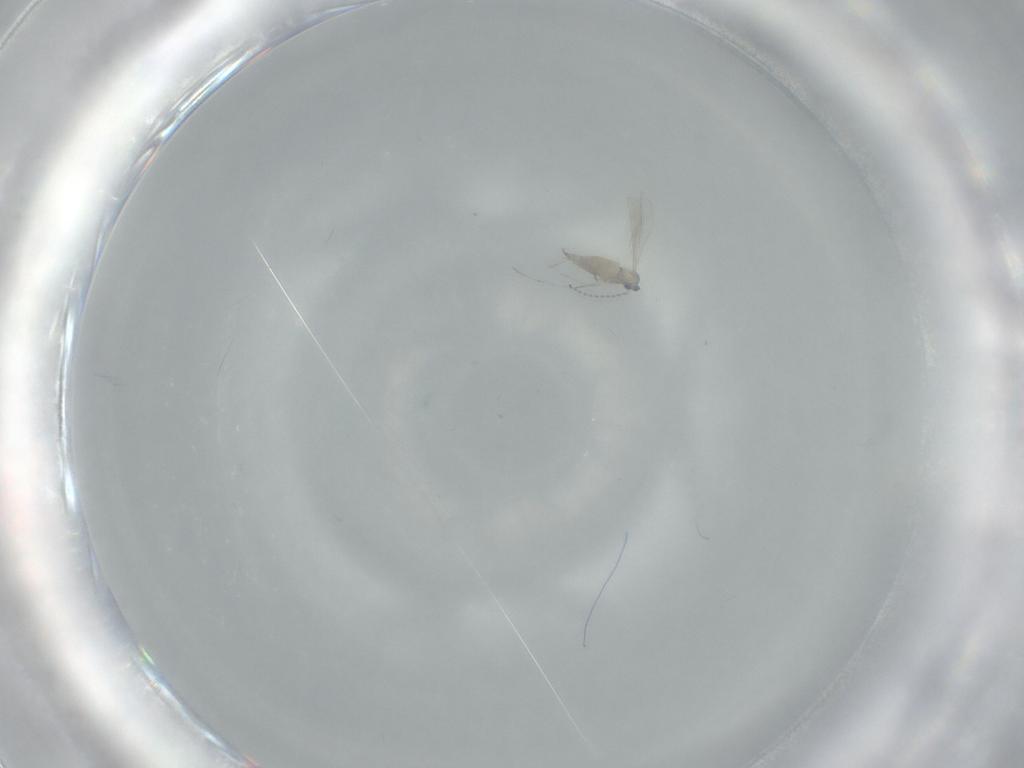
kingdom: Animalia
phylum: Arthropoda
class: Insecta
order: Diptera
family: Cecidomyiidae
